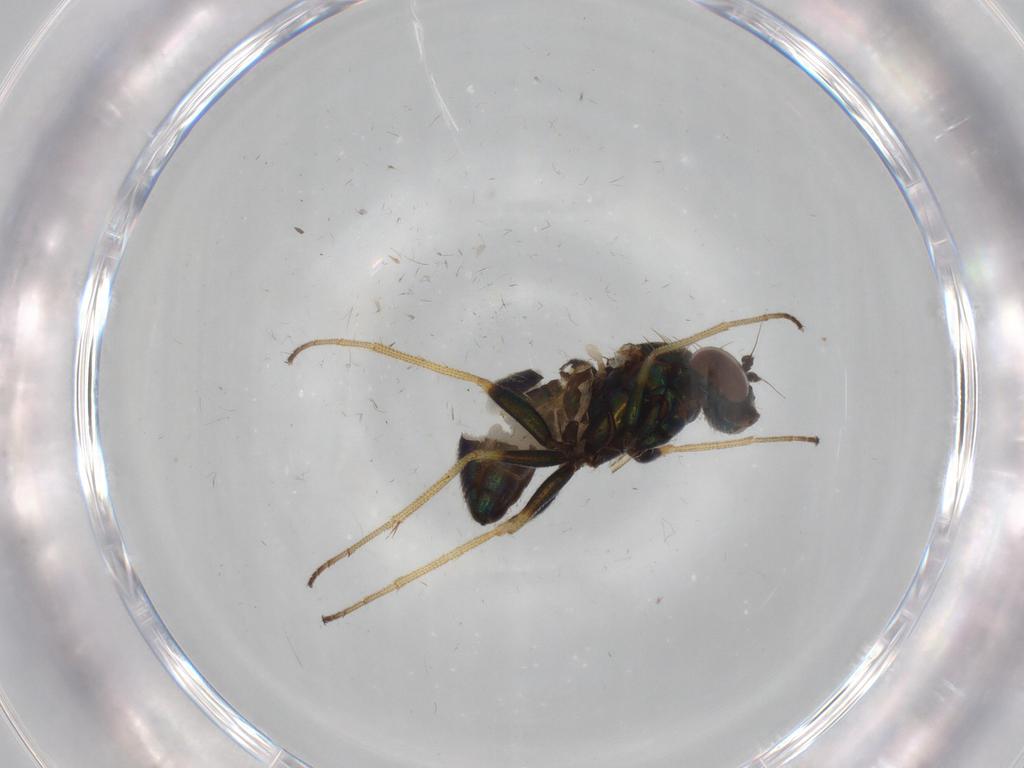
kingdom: Animalia
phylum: Arthropoda
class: Insecta
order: Diptera
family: Dolichopodidae
